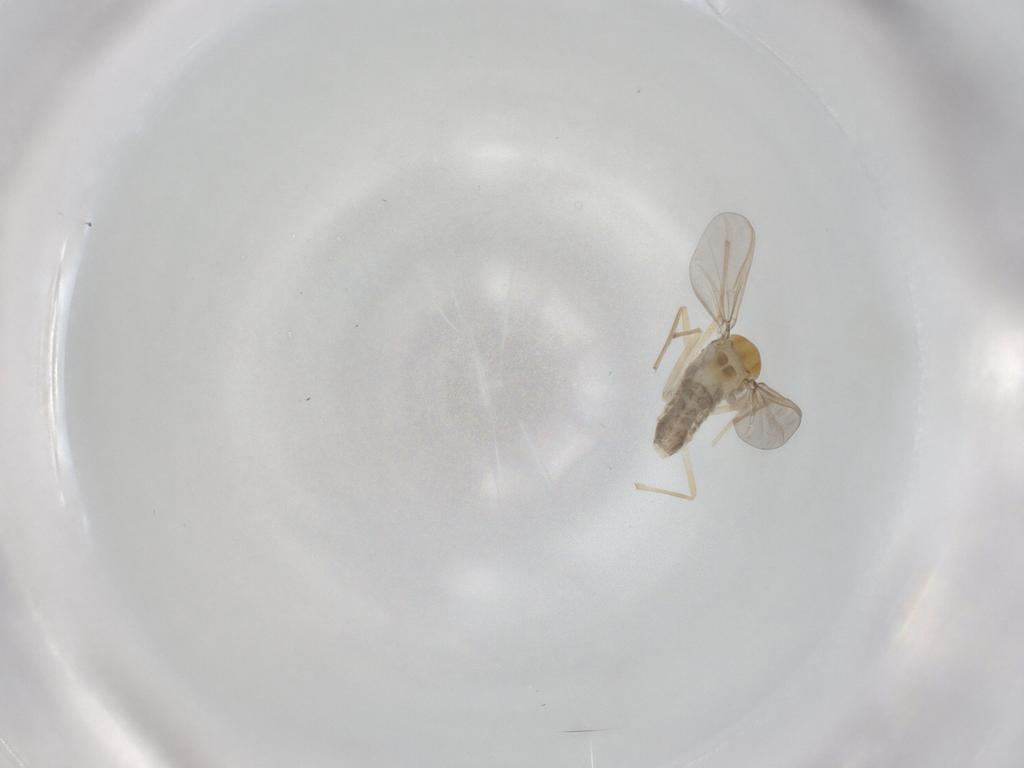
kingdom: Animalia
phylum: Arthropoda
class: Insecta
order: Diptera
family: Chironomidae
